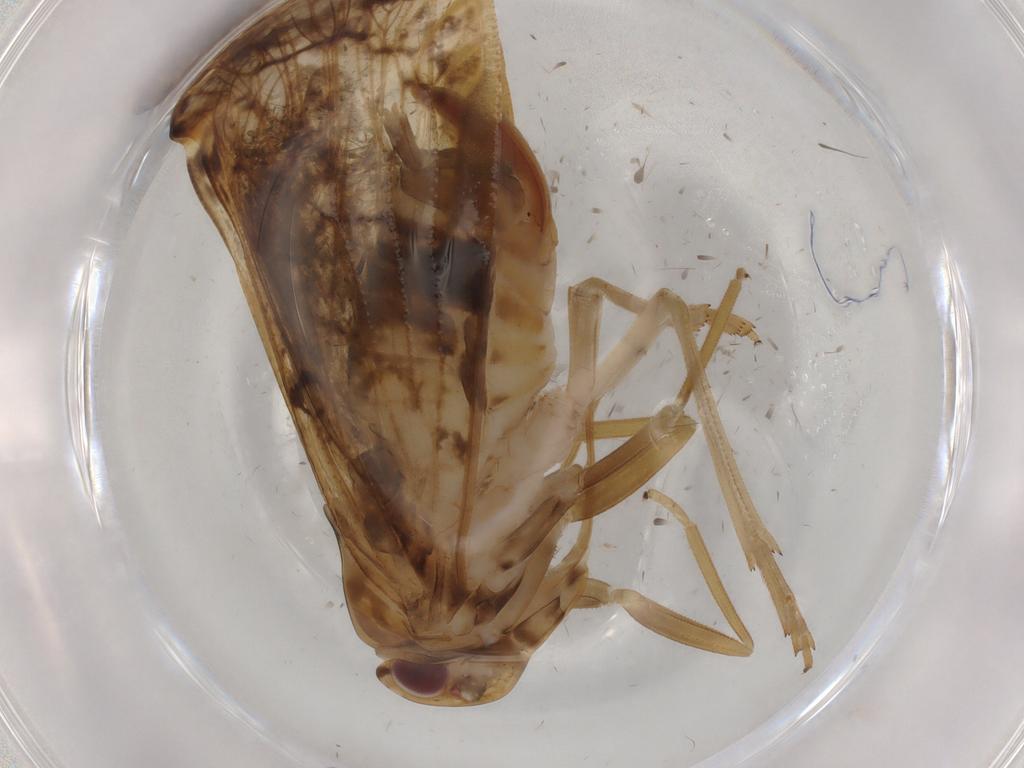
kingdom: Animalia
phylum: Arthropoda
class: Insecta
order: Hemiptera
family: Cixiidae
